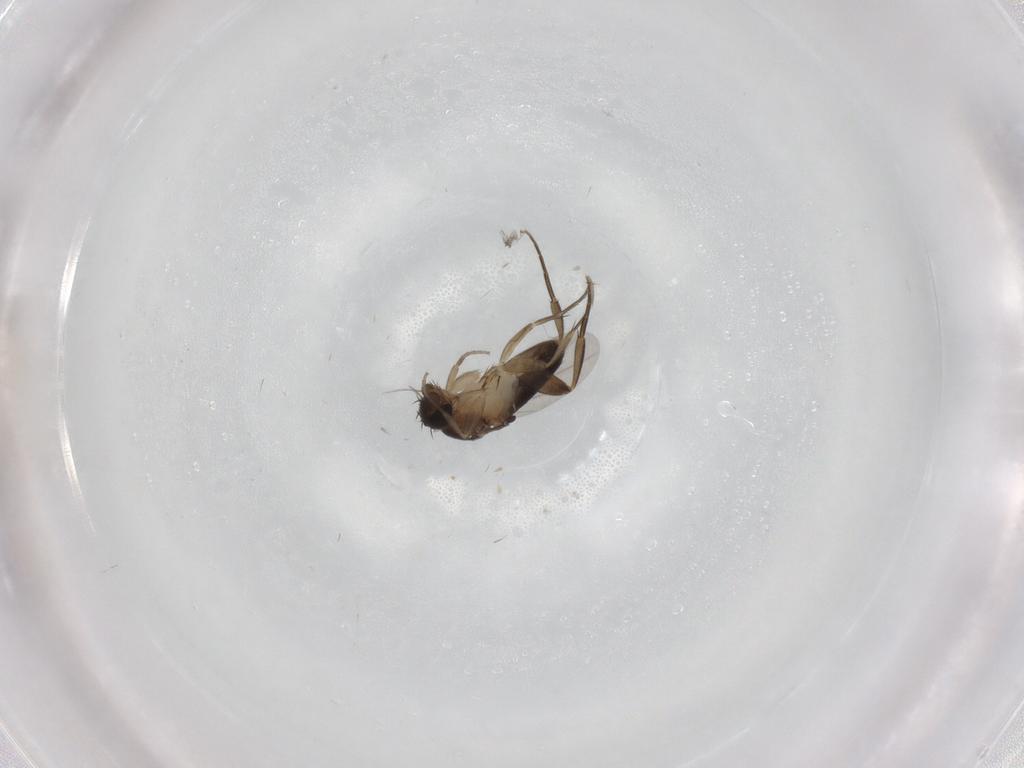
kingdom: Animalia
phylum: Arthropoda
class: Insecta
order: Diptera
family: Phoridae
